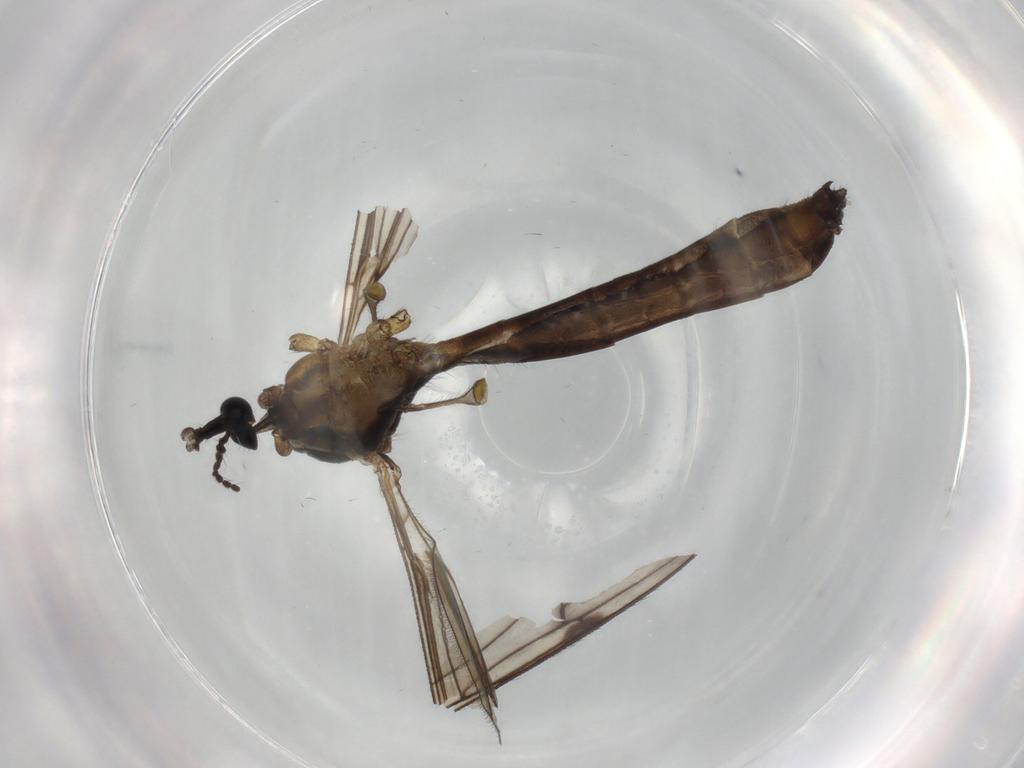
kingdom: Animalia
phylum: Arthropoda
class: Insecta
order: Diptera
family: Limoniidae
